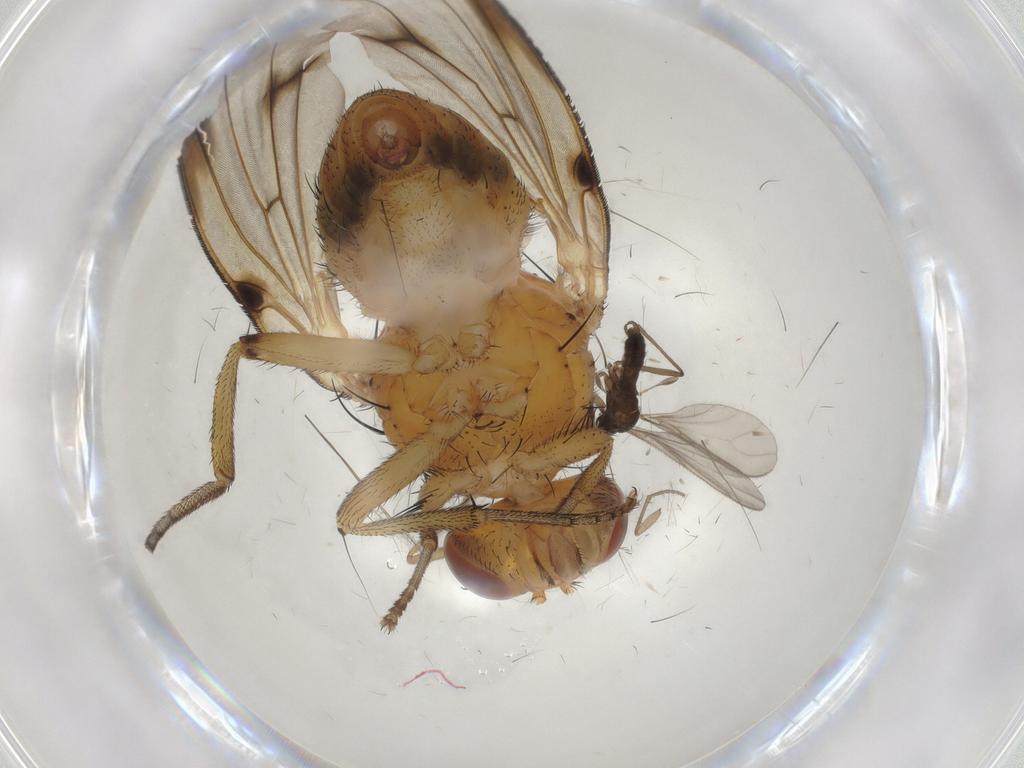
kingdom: Animalia
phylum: Arthropoda
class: Insecta
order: Diptera
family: Sciaridae
